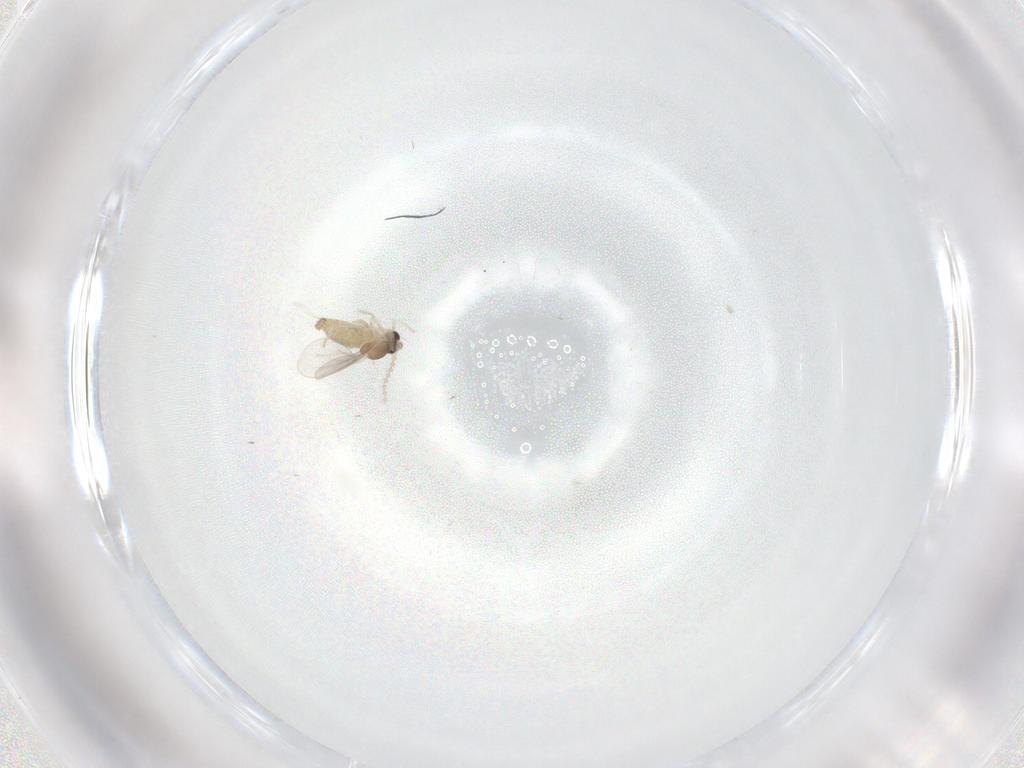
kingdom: Animalia
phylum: Arthropoda
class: Insecta
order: Diptera
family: Cecidomyiidae
